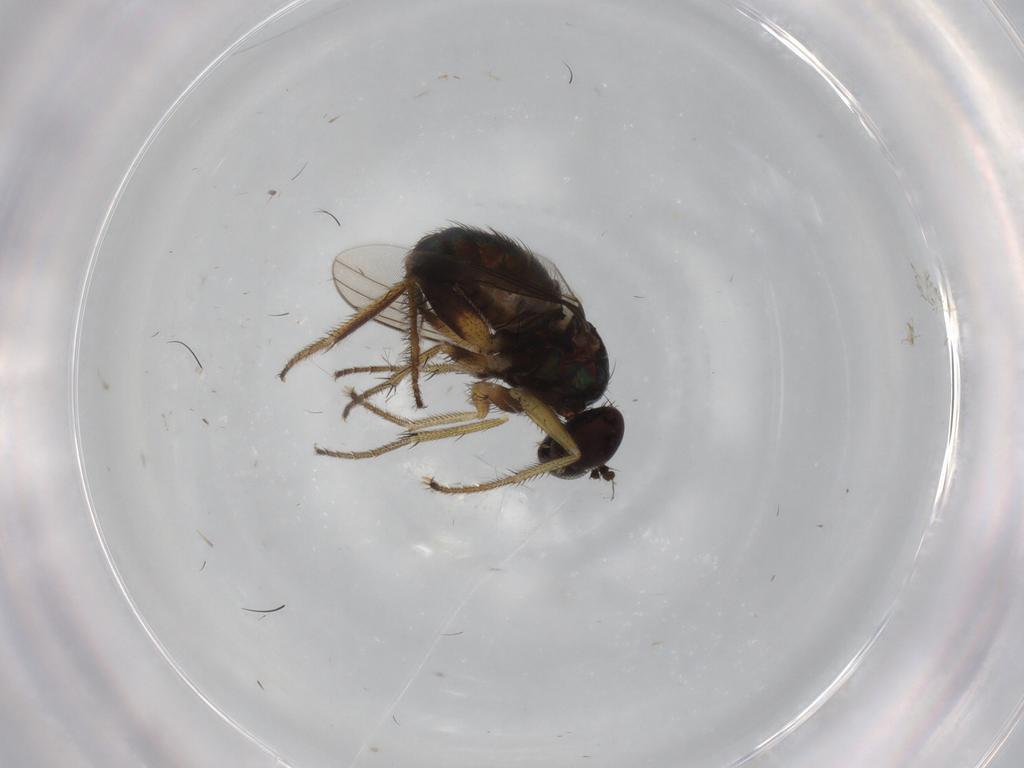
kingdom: Animalia
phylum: Arthropoda
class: Insecta
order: Diptera
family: Dolichopodidae
